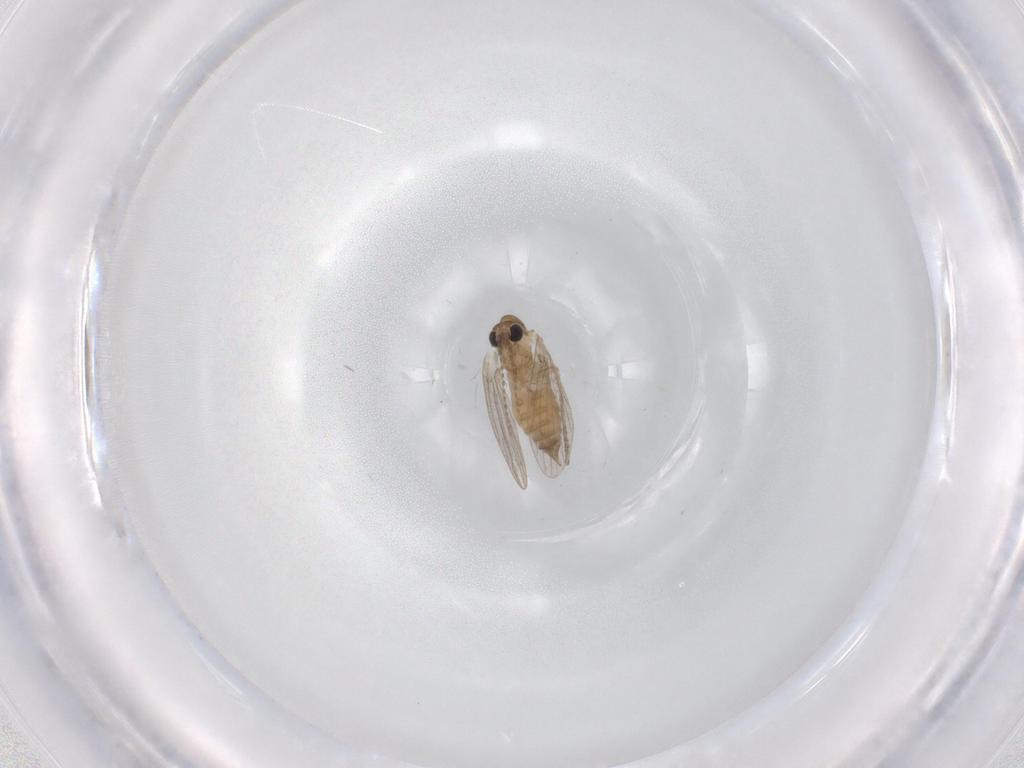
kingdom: Animalia
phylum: Arthropoda
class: Insecta
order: Diptera
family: Psychodidae
